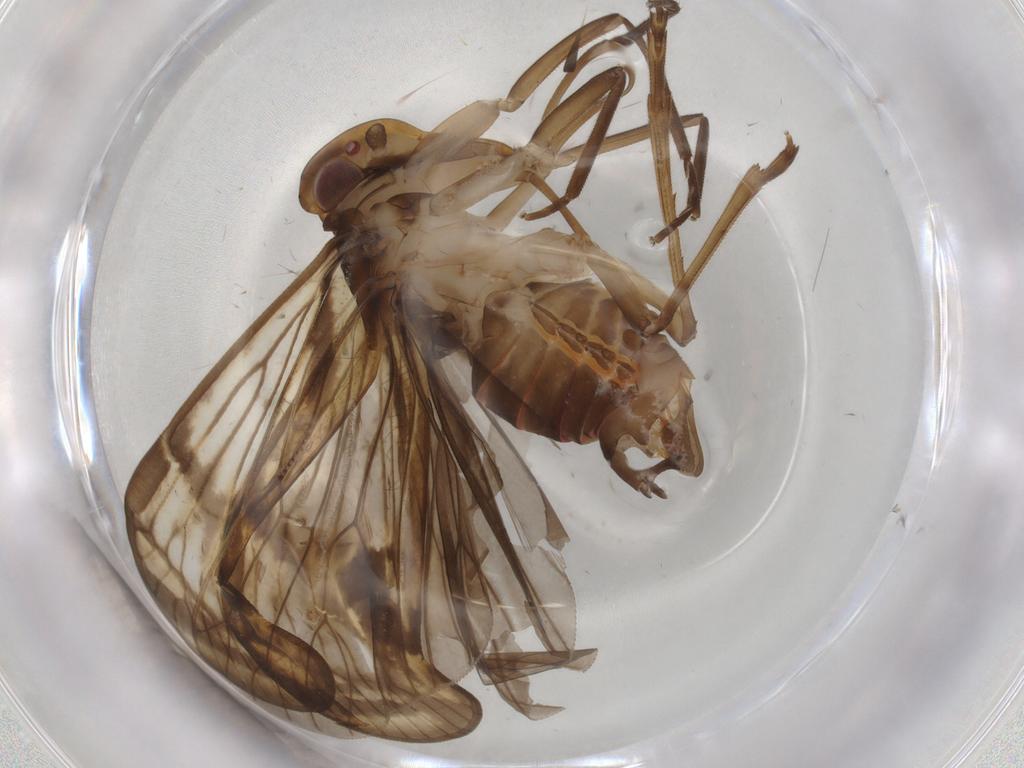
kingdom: Animalia
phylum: Arthropoda
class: Insecta
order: Hemiptera
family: Cixiidae
